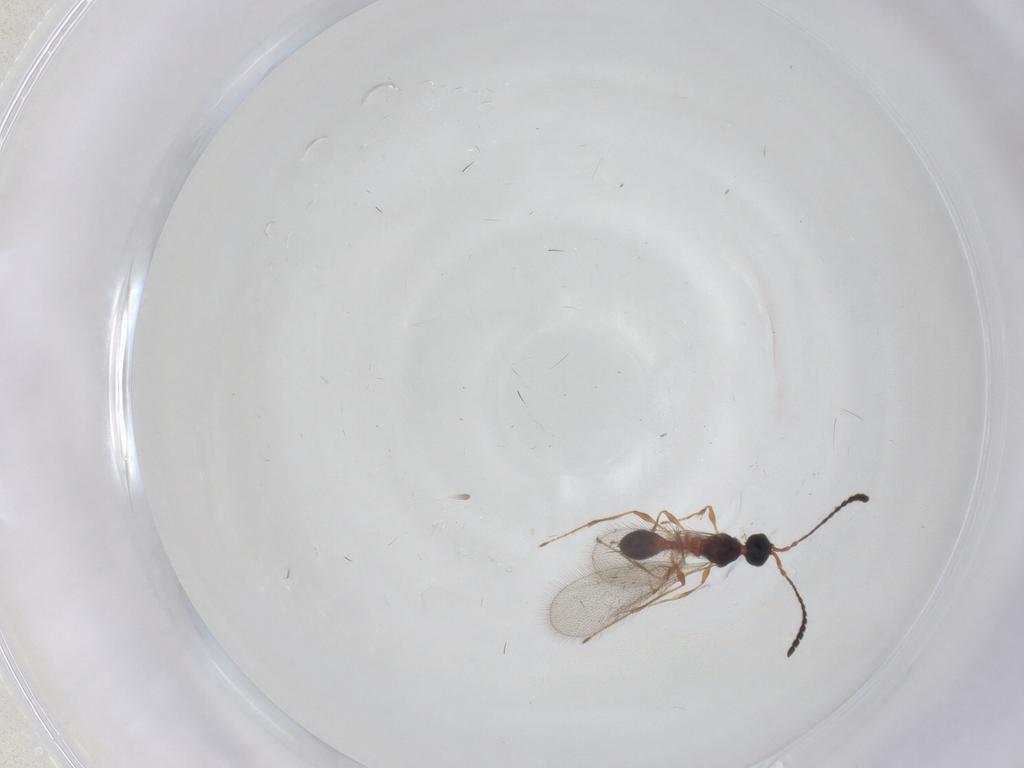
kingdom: Animalia
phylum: Arthropoda
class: Insecta
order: Hymenoptera
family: Diapriidae
